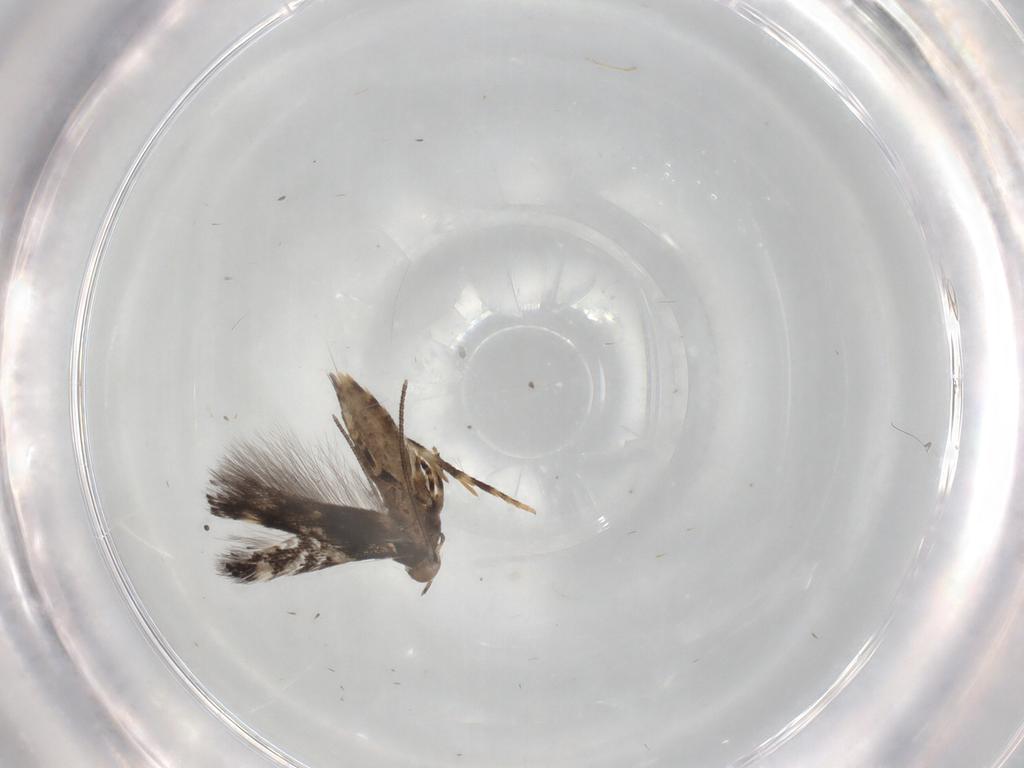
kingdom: Animalia
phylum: Arthropoda
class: Insecta
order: Lepidoptera
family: Elachistidae
